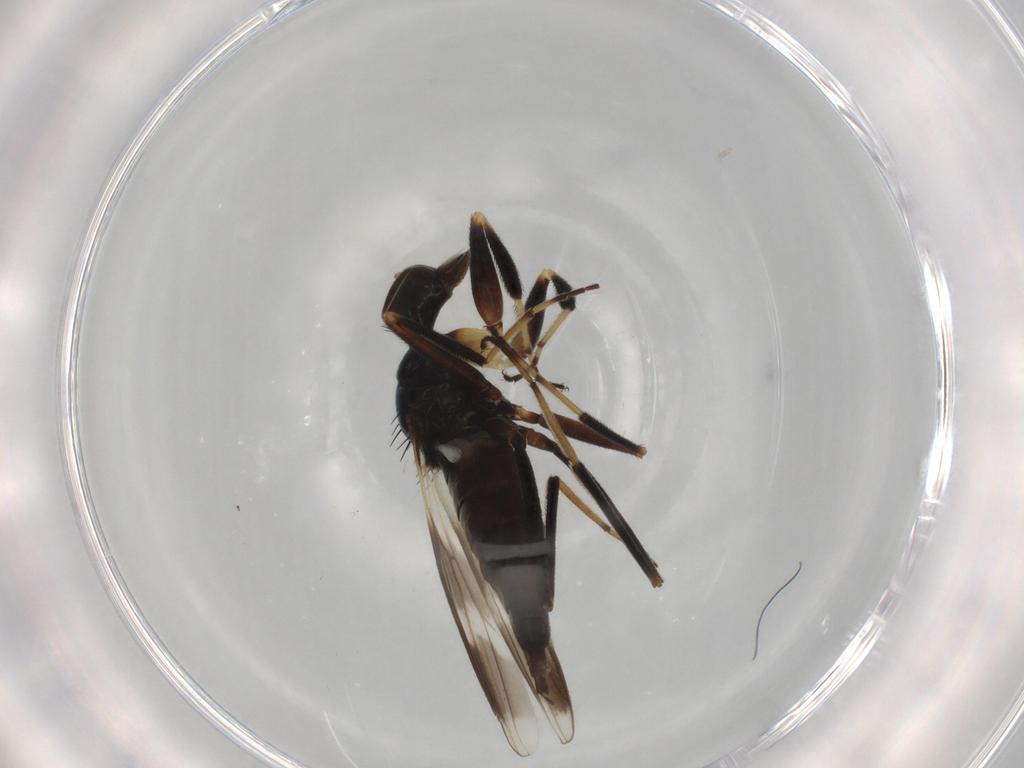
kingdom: Animalia
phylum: Arthropoda
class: Insecta
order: Diptera
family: Hybotidae
